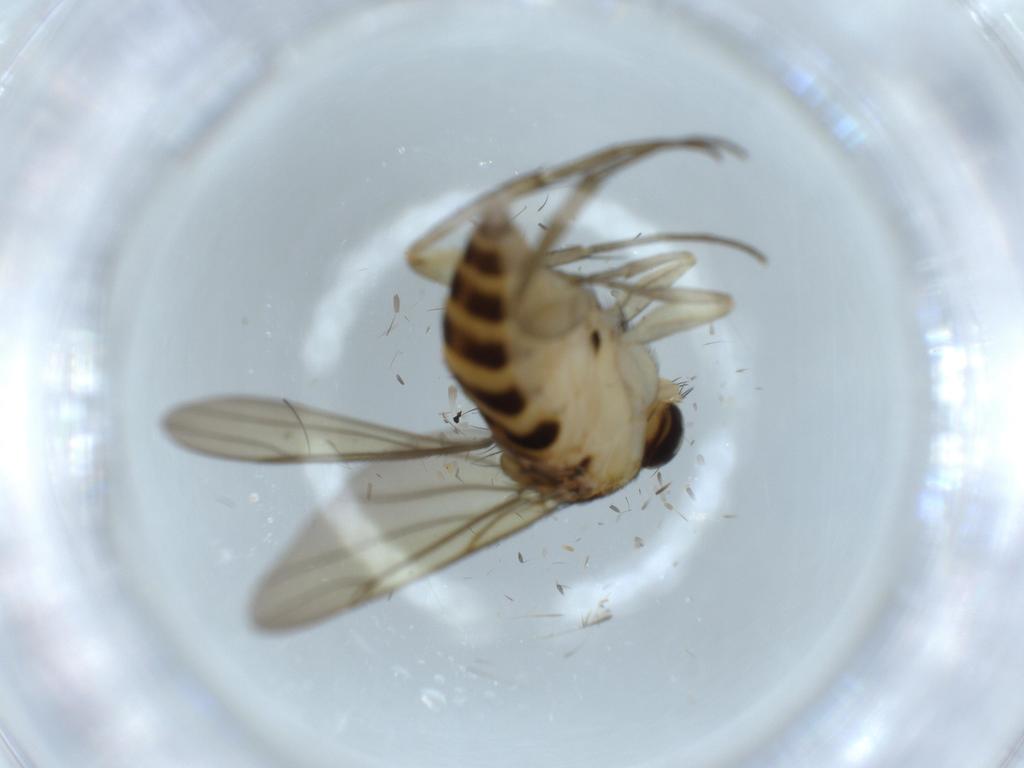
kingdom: Animalia
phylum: Arthropoda
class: Insecta
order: Diptera
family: Phoridae
